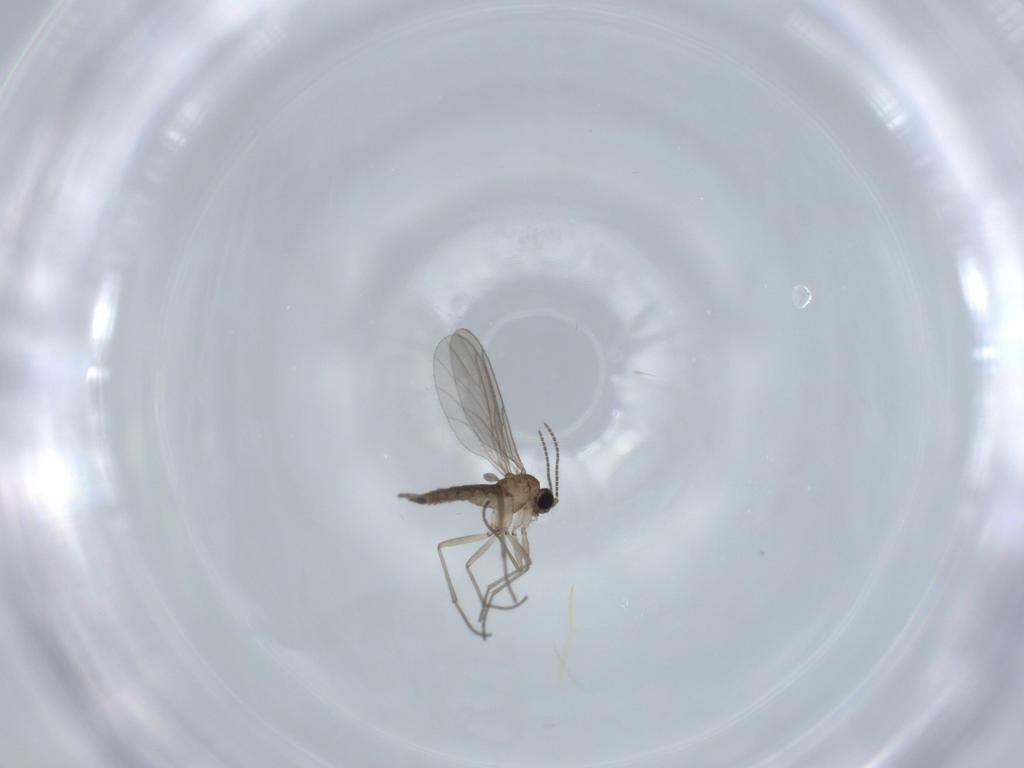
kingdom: Animalia
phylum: Arthropoda
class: Insecta
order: Diptera
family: Sciaridae
